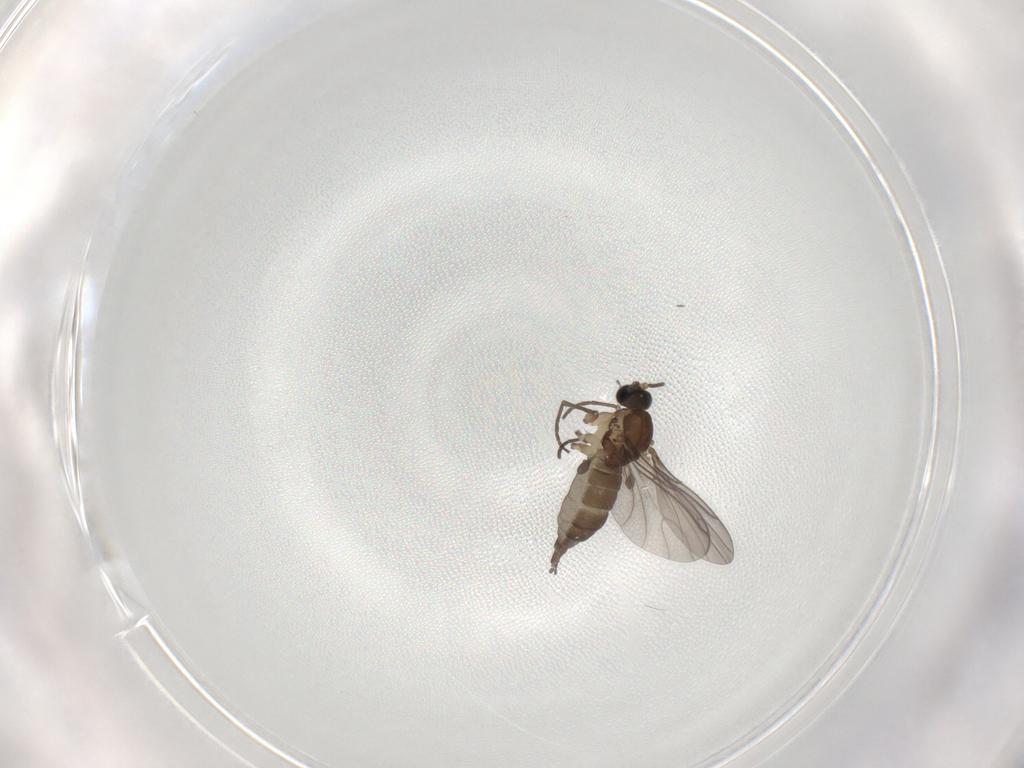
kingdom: Animalia
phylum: Arthropoda
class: Insecta
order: Diptera
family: Sciaridae
